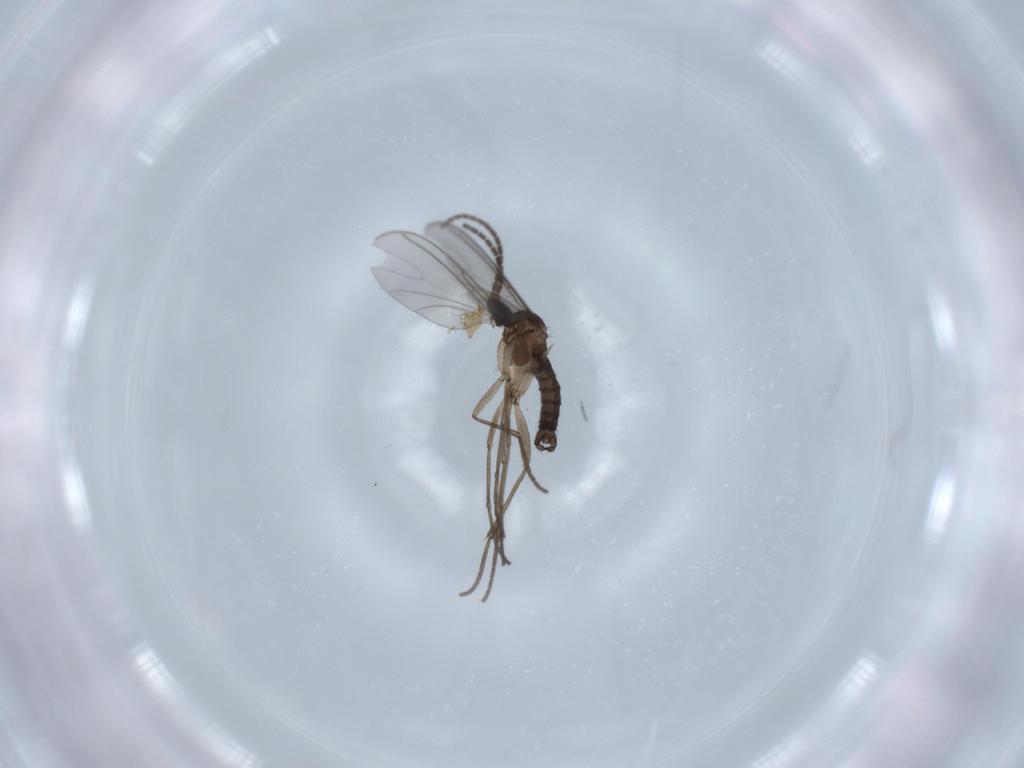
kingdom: Animalia
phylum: Arthropoda
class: Insecta
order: Diptera
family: Sciaridae
